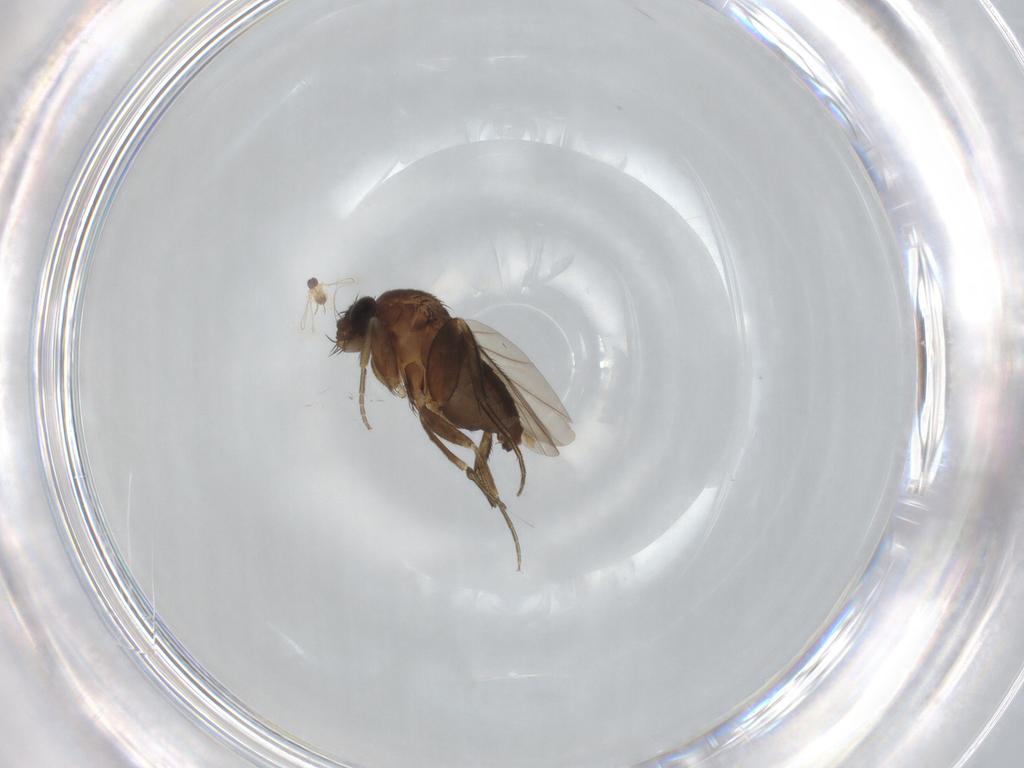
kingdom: Animalia
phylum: Arthropoda
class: Insecta
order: Diptera
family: Phoridae
